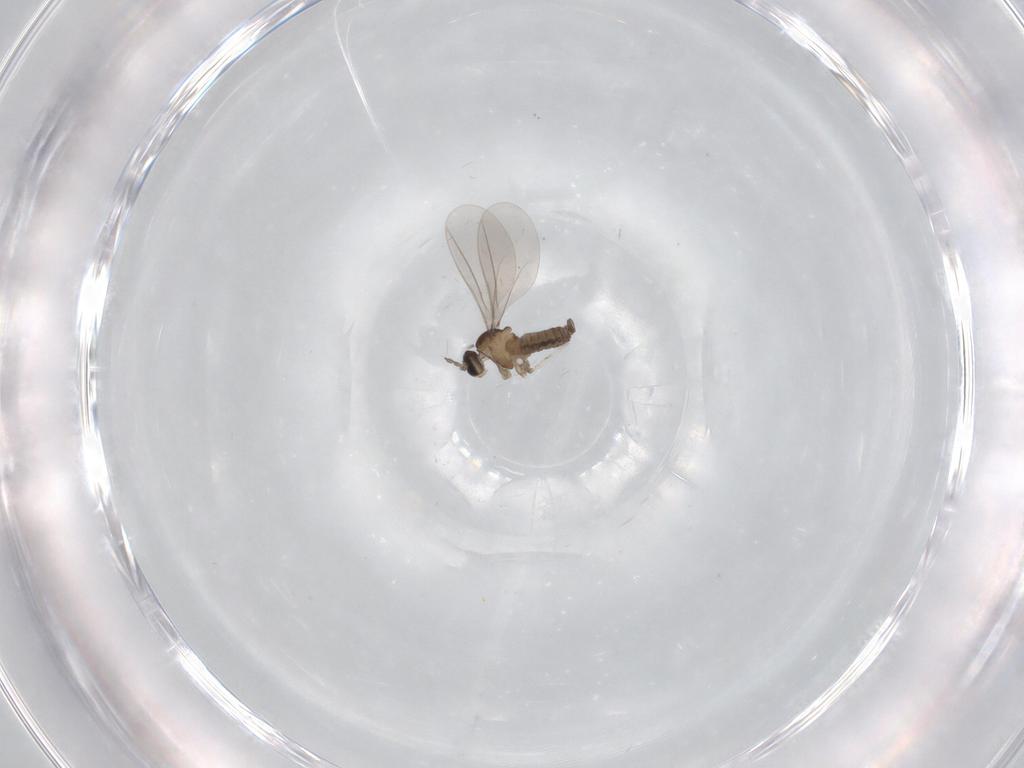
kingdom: Animalia
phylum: Arthropoda
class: Insecta
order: Diptera
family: Cecidomyiidae
